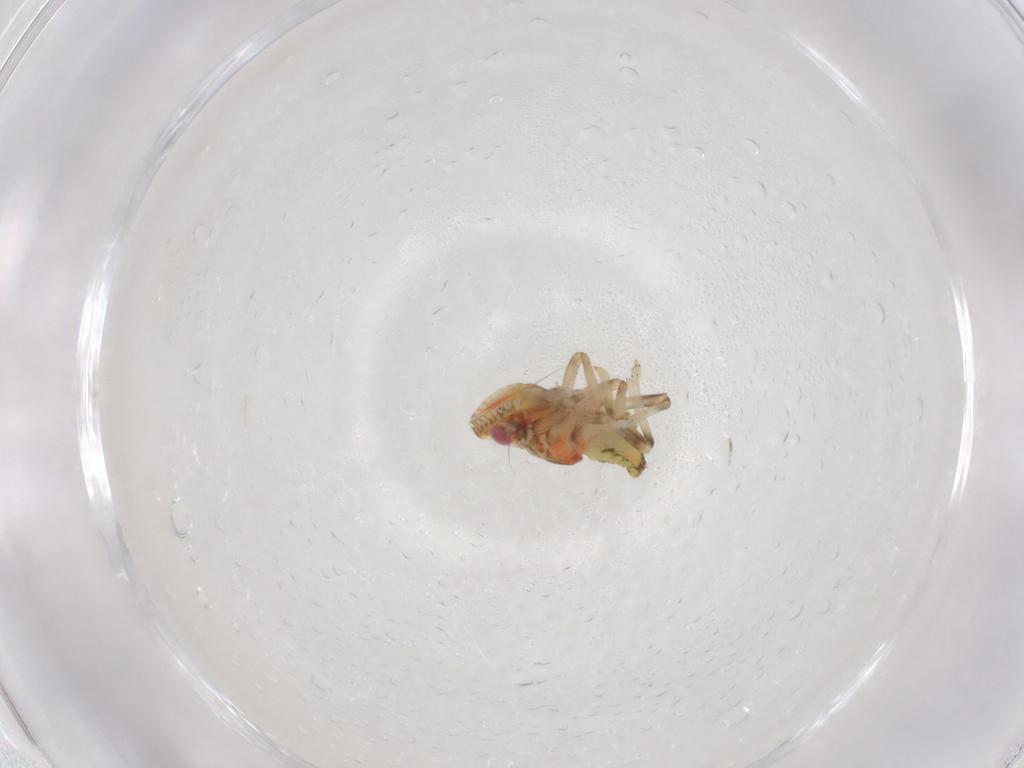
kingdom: Animalia
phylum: Arthropoda
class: Insecta
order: Hemiptera
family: Tropiduchidae
